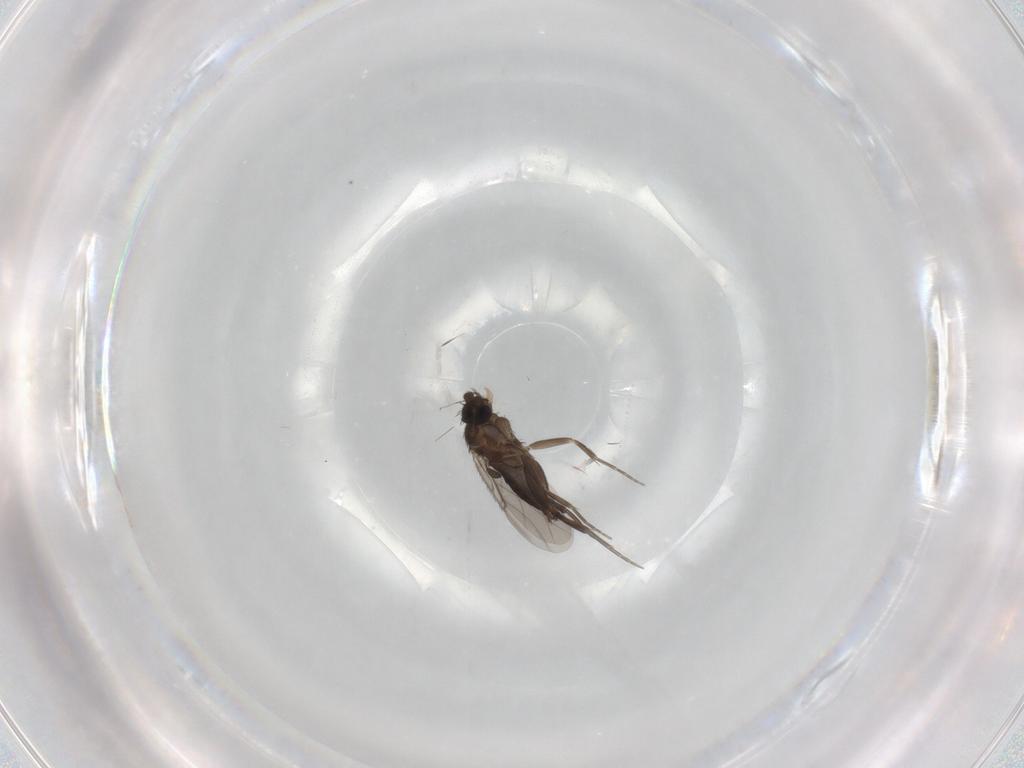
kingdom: Animalia
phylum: Arthropoda
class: Insecta
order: Diptera
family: Phoridae
